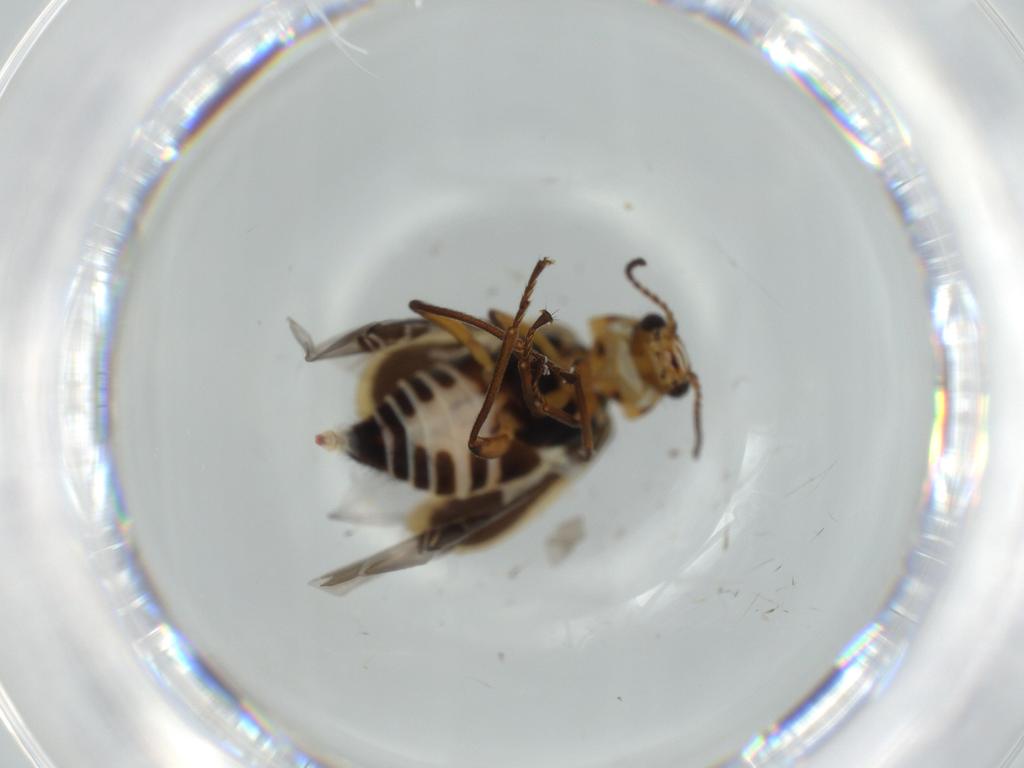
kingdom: Animalia
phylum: Arthropoda
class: Insecta
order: Coleoptera
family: Melyridae
